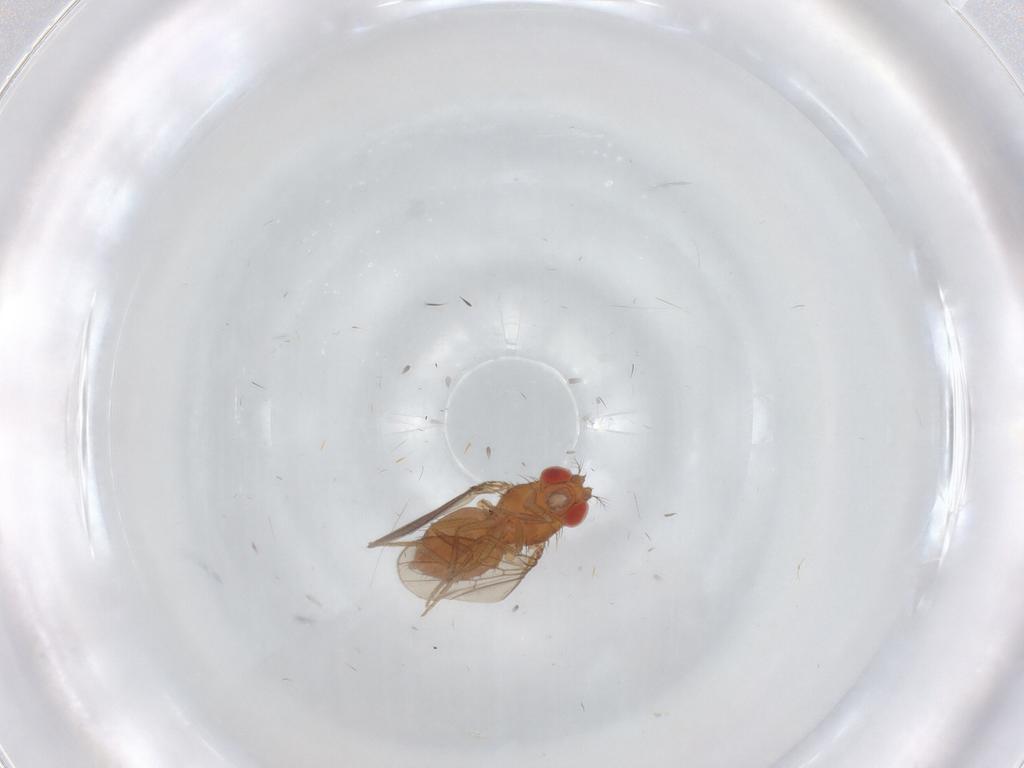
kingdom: Animalia
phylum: Arthropoda
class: Insecta
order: Diptera
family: Drosophilidae
